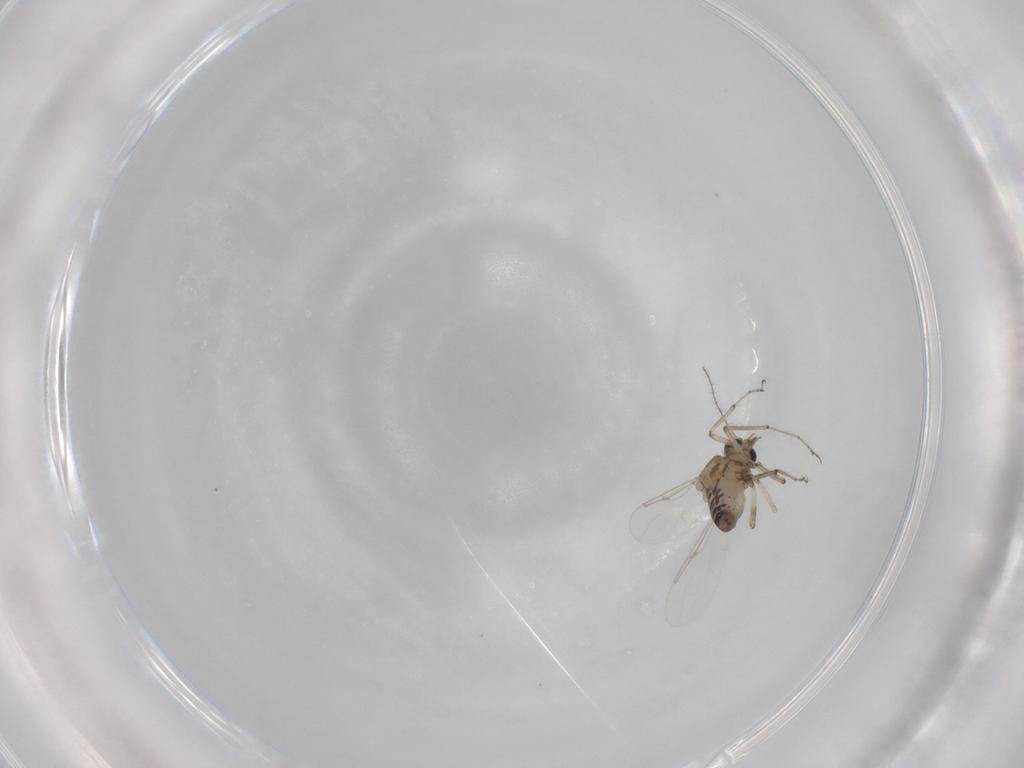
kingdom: Animalia
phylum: Arthropoda
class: Insecta
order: Diptera
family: Ceratopogonidae
